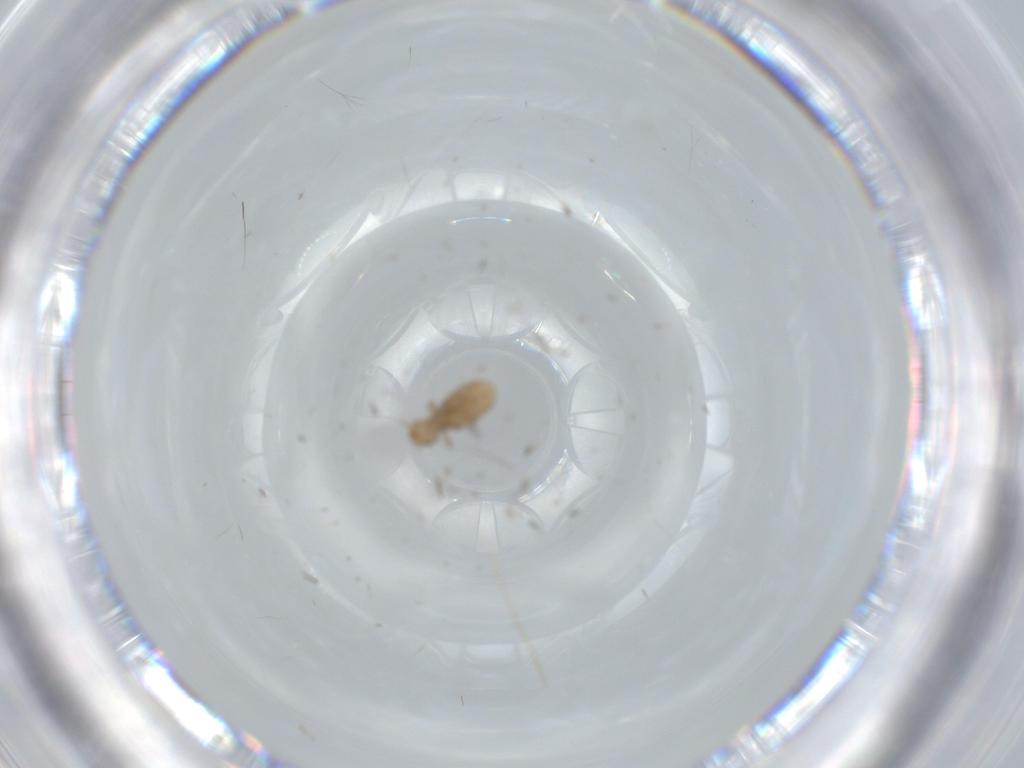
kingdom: Animalia
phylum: Arthropoda
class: Insecta
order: Psocodea
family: Liposcelididae
